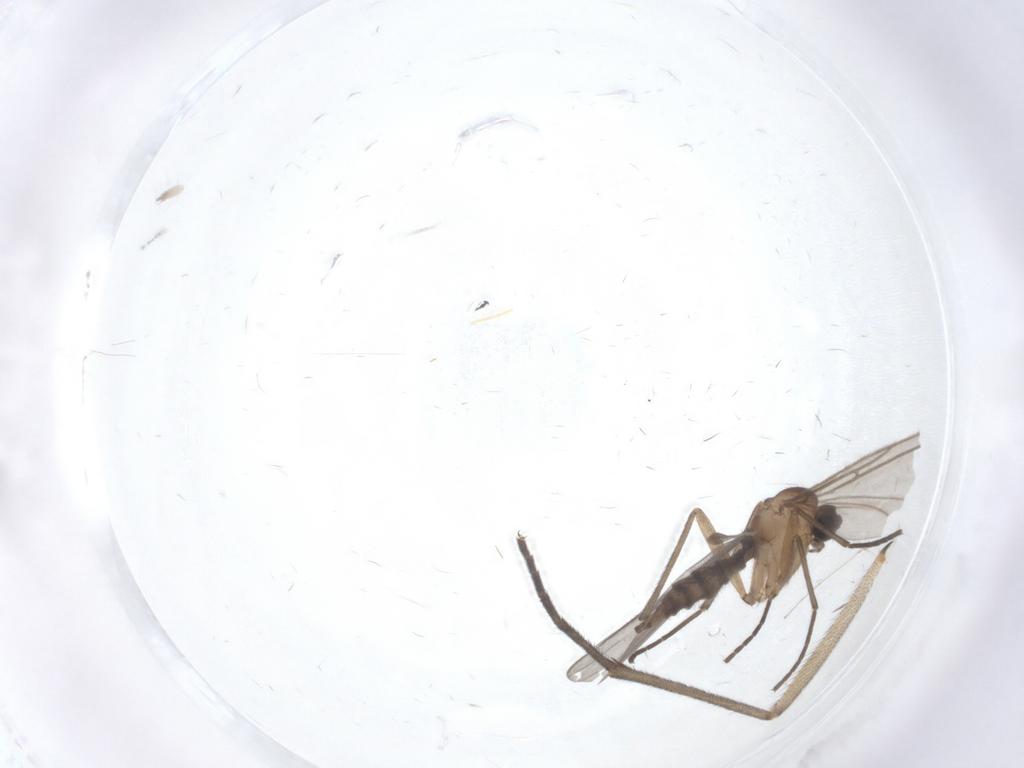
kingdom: Animalia
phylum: Arthropoda
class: Insecta
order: Diptera
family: Sciaridae
